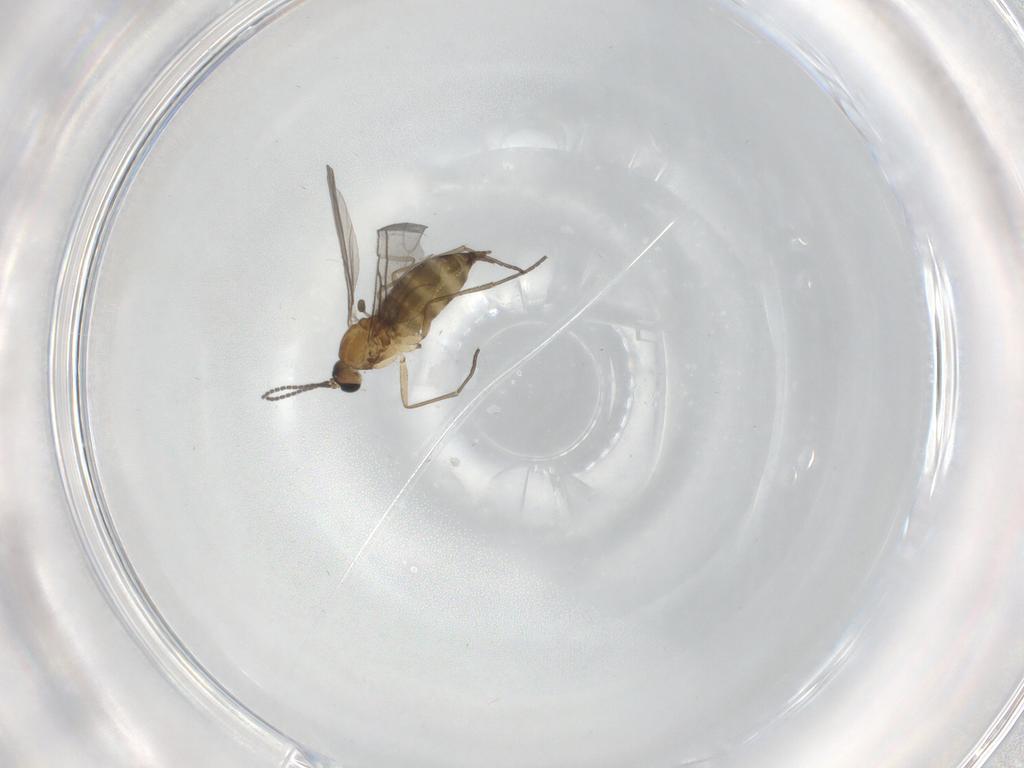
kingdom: Animalia
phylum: Arthropoda
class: Insecta
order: Diptera
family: Sciaridae
